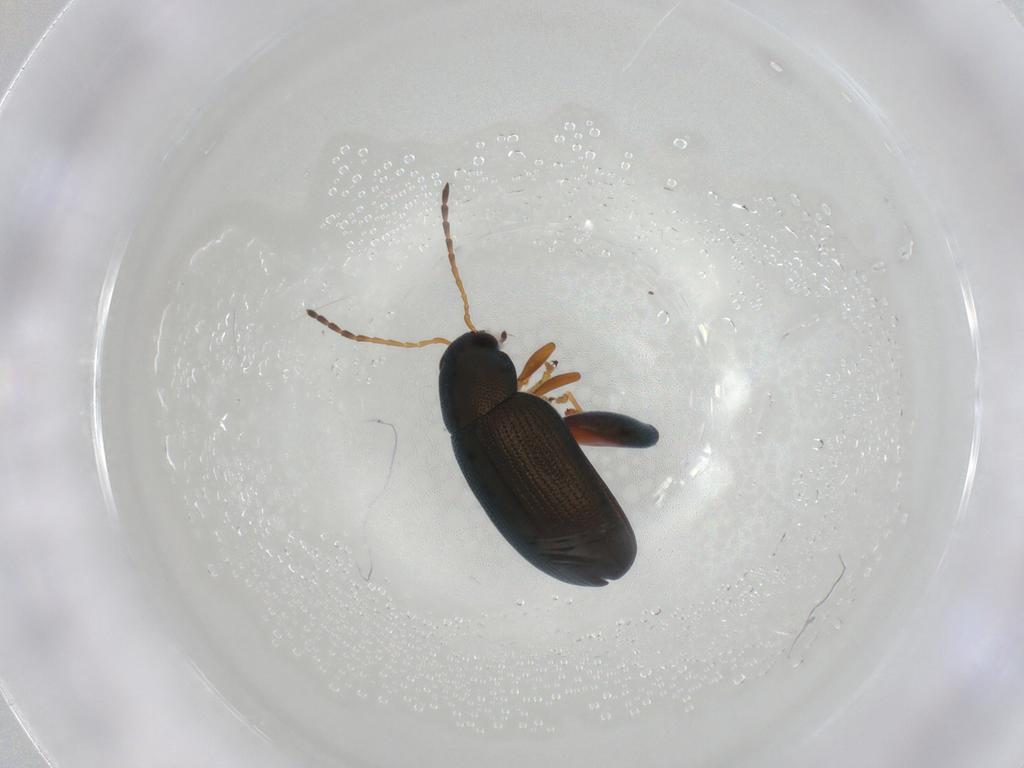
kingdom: Animalia
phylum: Arthropoda
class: Insecta
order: Coleoptera
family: Chrysomelidae
